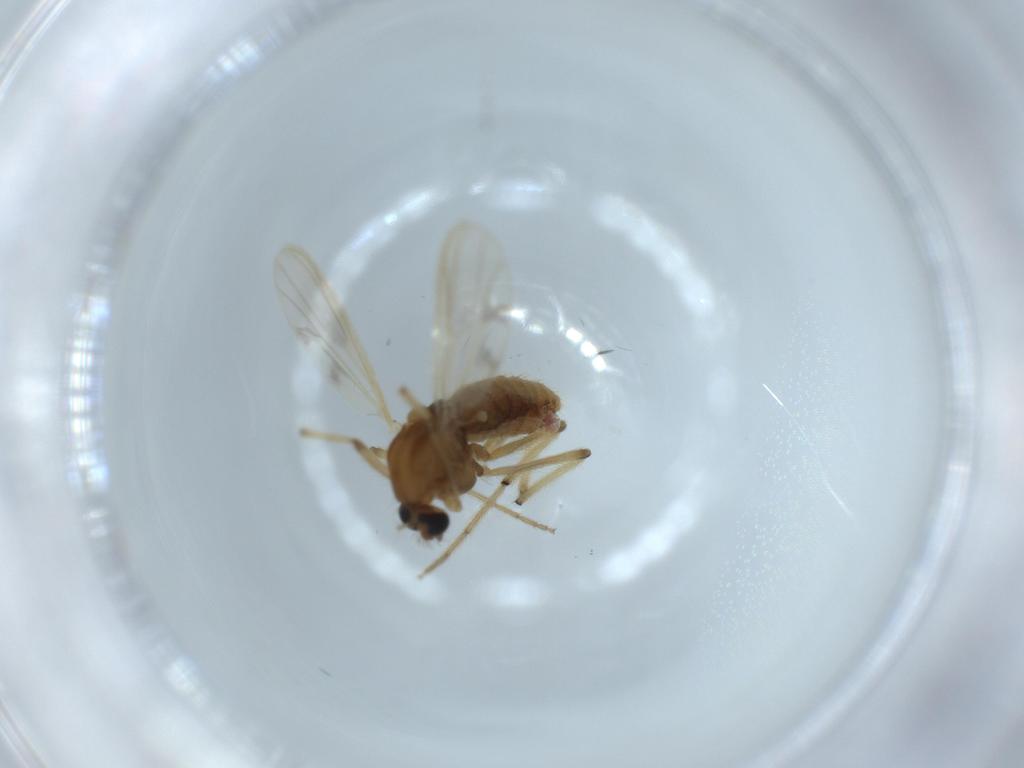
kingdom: Animalia
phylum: Arthropoda
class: Insecta
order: Diptera
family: Chironomidae
